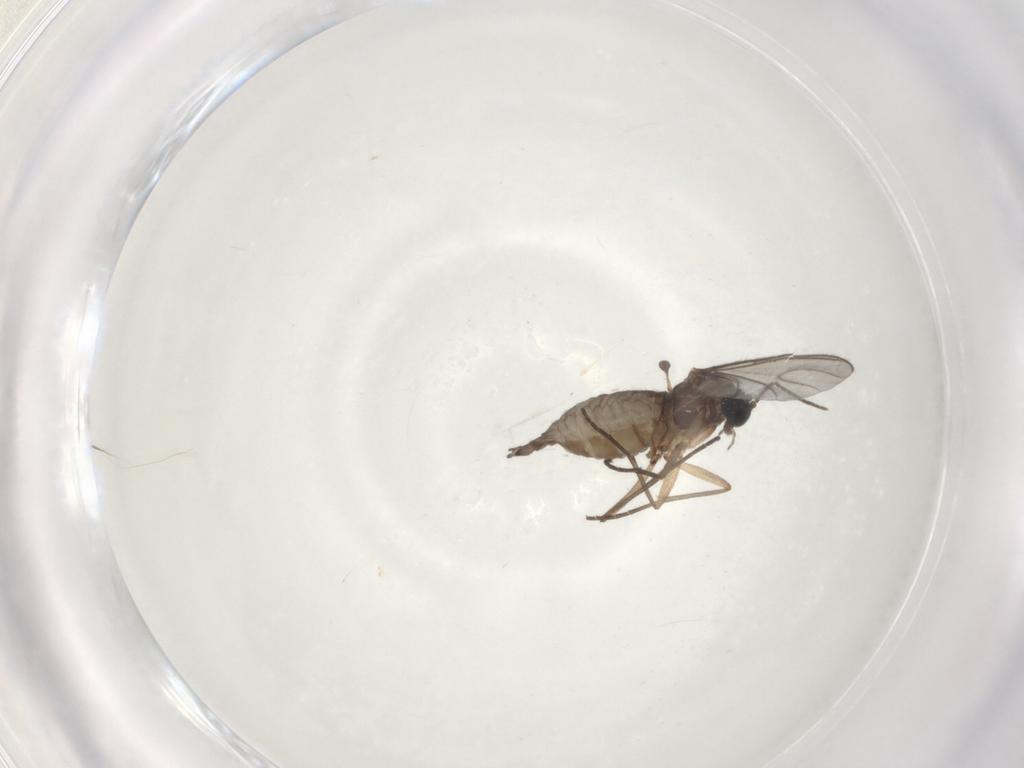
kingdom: Animalia
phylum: Arthropoda
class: Insecta
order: Diptera
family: Sciaridae
